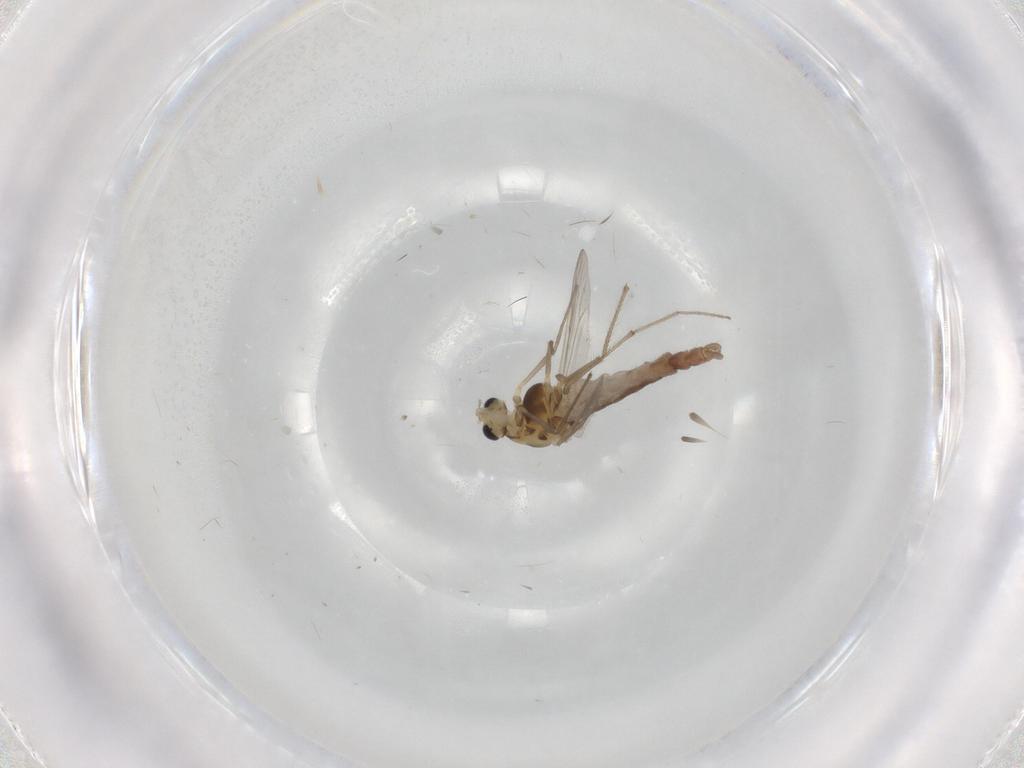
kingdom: Animalia
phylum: Arthropoda
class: Insecta
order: Diptera
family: Chironomidae
